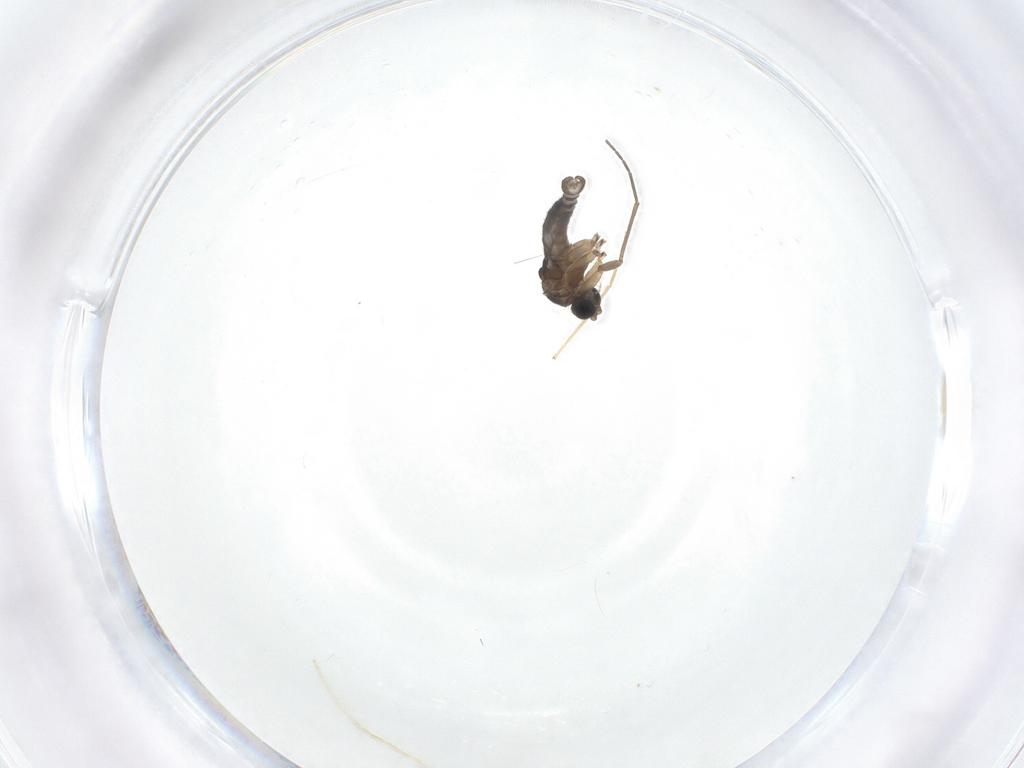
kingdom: Animalia
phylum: Arthropoda
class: Insecta
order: Diptera
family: Sciaridae
